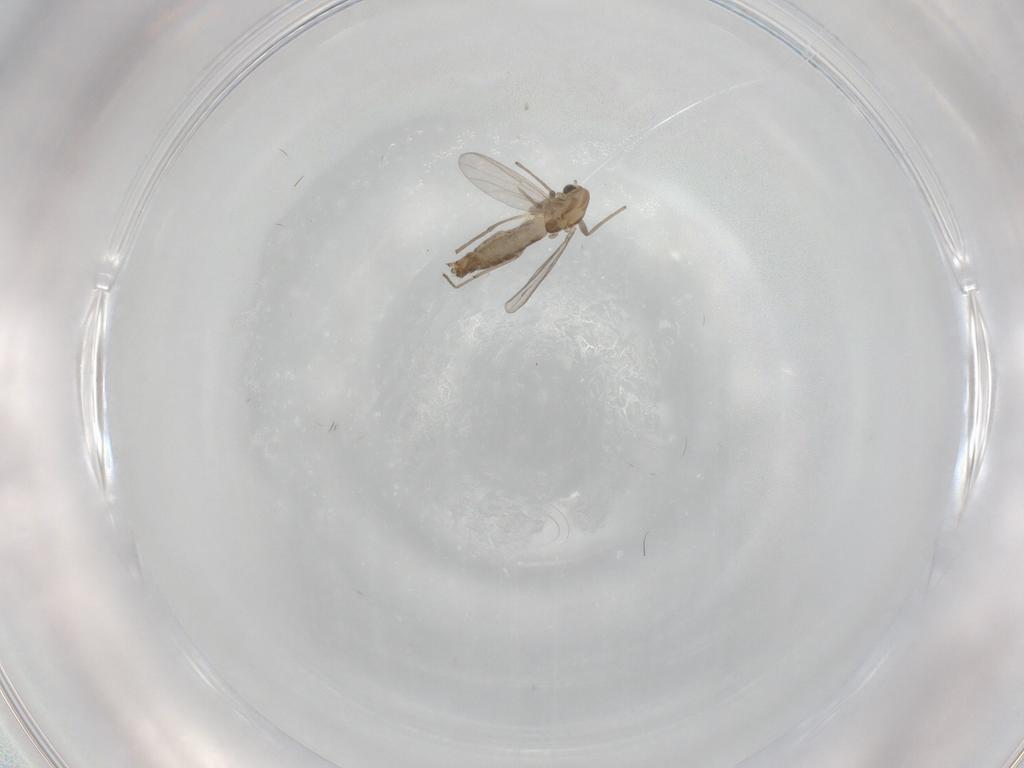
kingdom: Animalia
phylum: Arthropoda
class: Insecta
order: Diptera
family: Chironomidae
